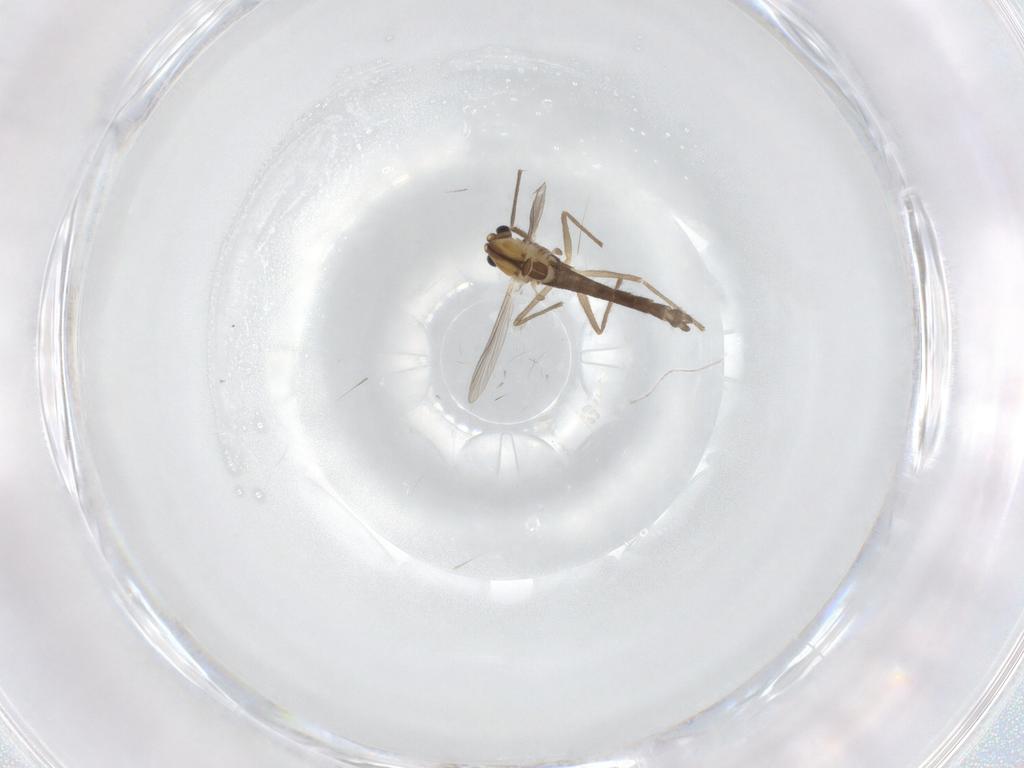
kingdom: Animalia
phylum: Arthropoda
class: Insecta
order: Diptera
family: Chironomidae
